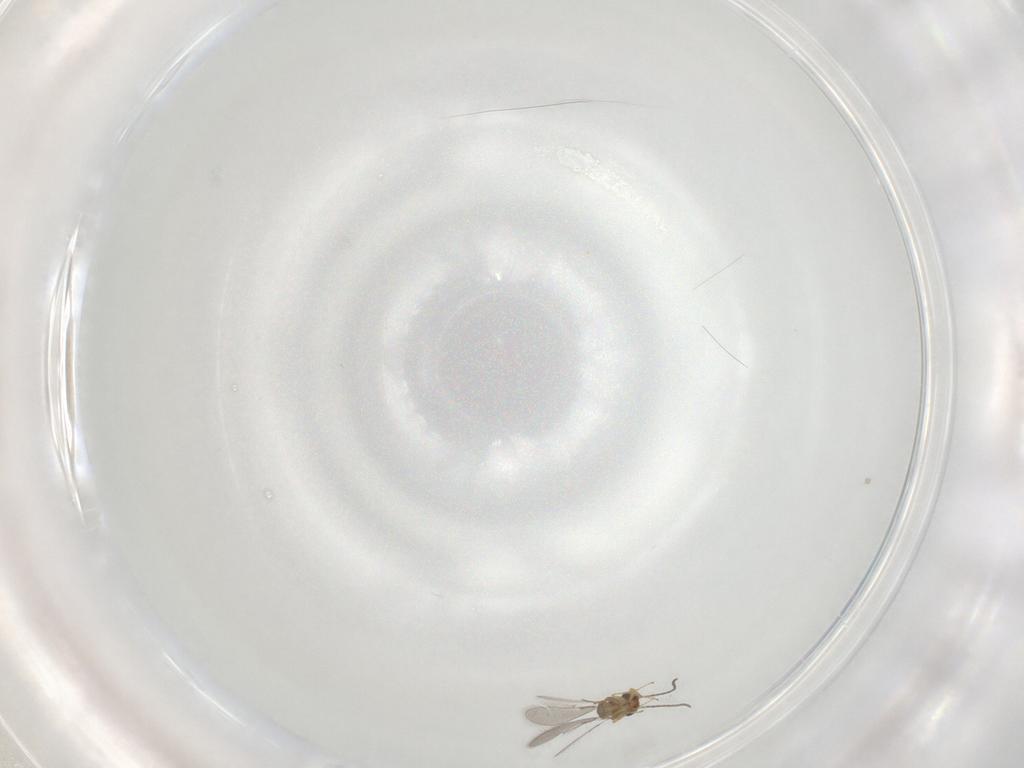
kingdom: Animalia
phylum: Arthropoda
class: Insecta
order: Hymenoptera
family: Mymaridae
